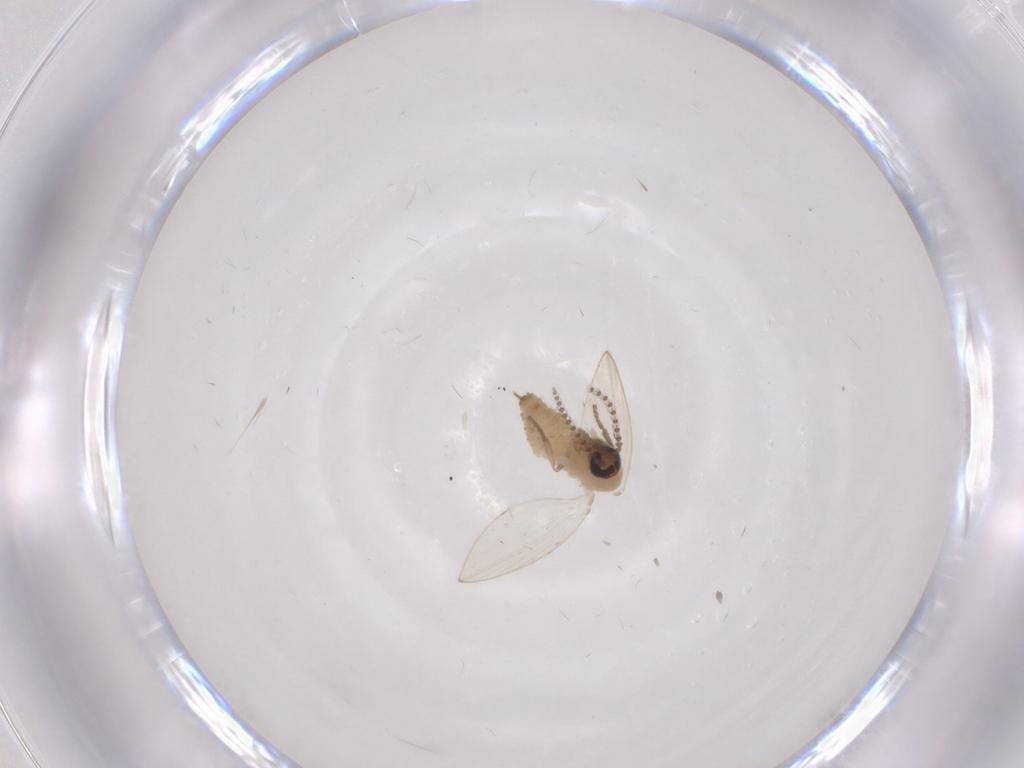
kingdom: Animalia
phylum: Arthropoda
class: Insecta
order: Diptera
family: Psychodidae
